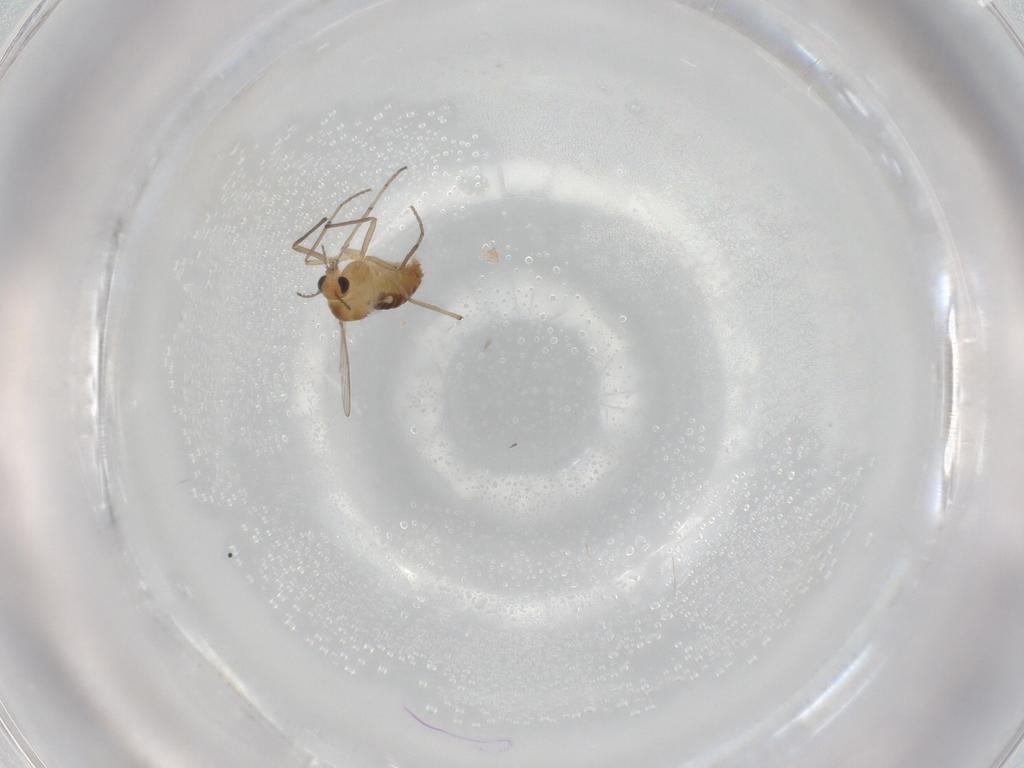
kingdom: Animalia
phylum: Arthropoda
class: Insecta
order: Diptera
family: Chironomidae
